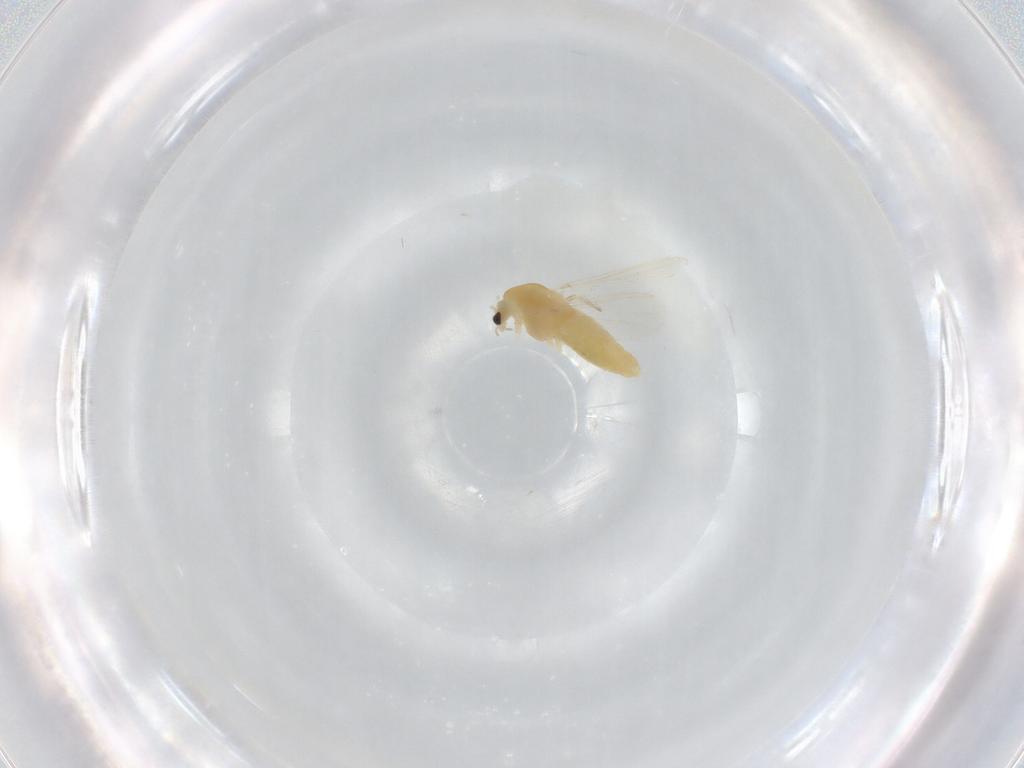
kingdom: Animalia
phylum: Arthropoda
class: Insecta
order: Diptera
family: Chironomidae
